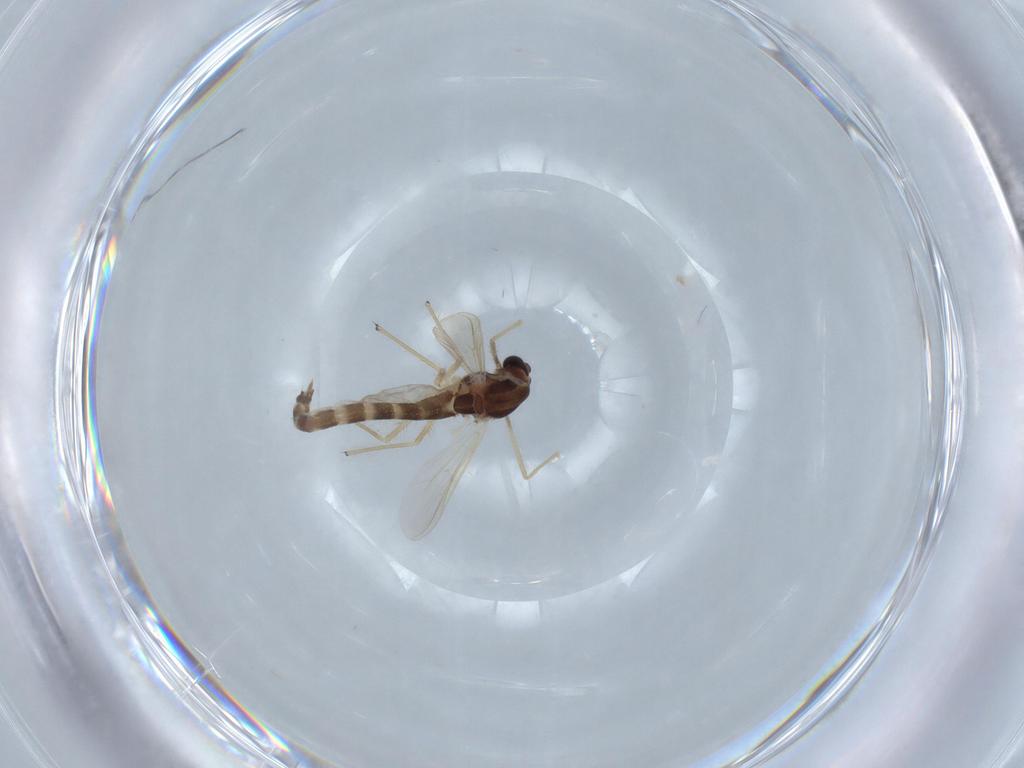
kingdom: Animalia
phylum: Arthropoda
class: Insecta
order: Diptera
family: Chironomidae
